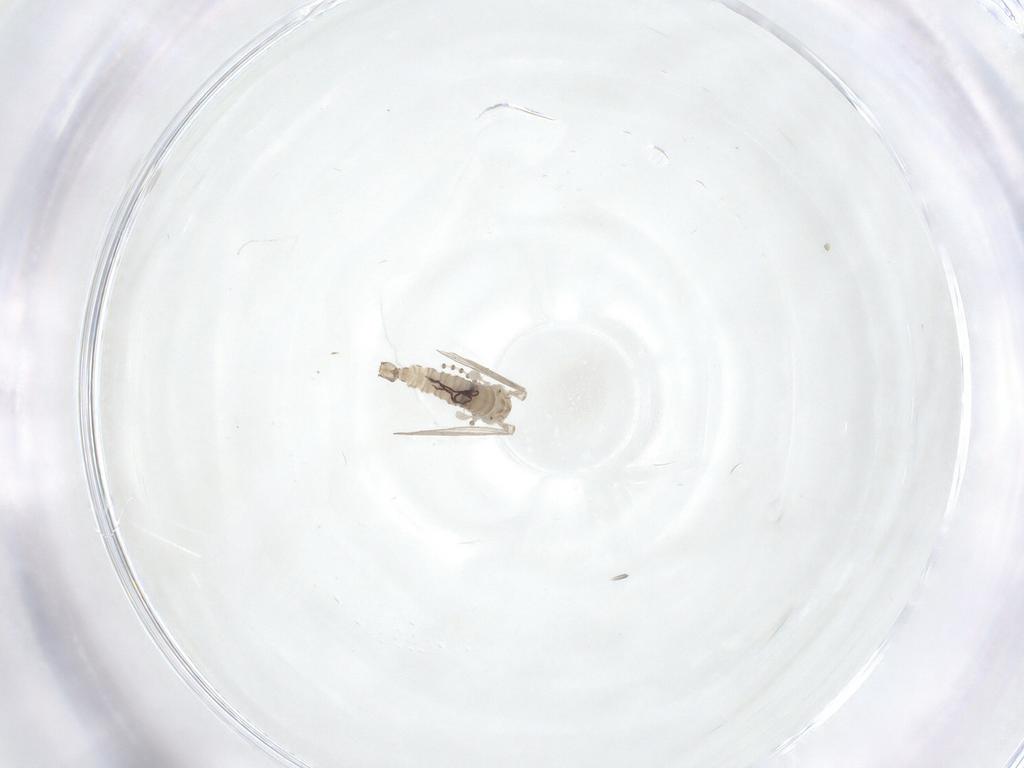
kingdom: Animalia
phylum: Arthropoda
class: Insecta
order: Diptera
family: Psychodidae
